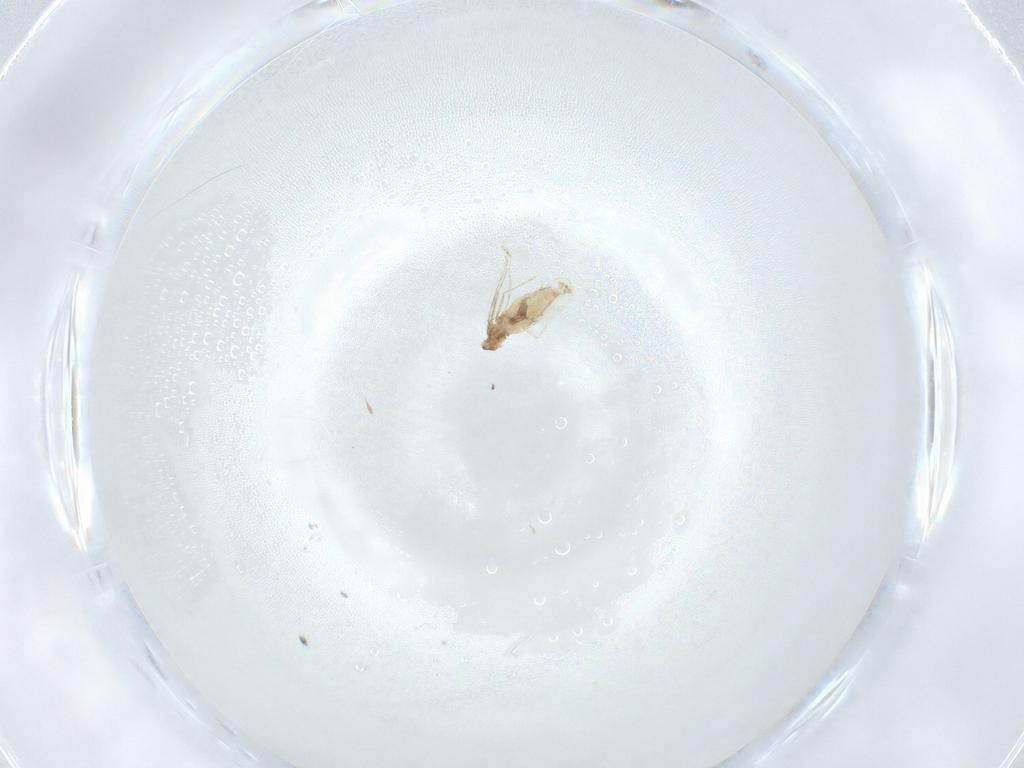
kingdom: Animalia
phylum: Arthropoda
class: Insecta
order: Diptera
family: Cecidomyiidae
